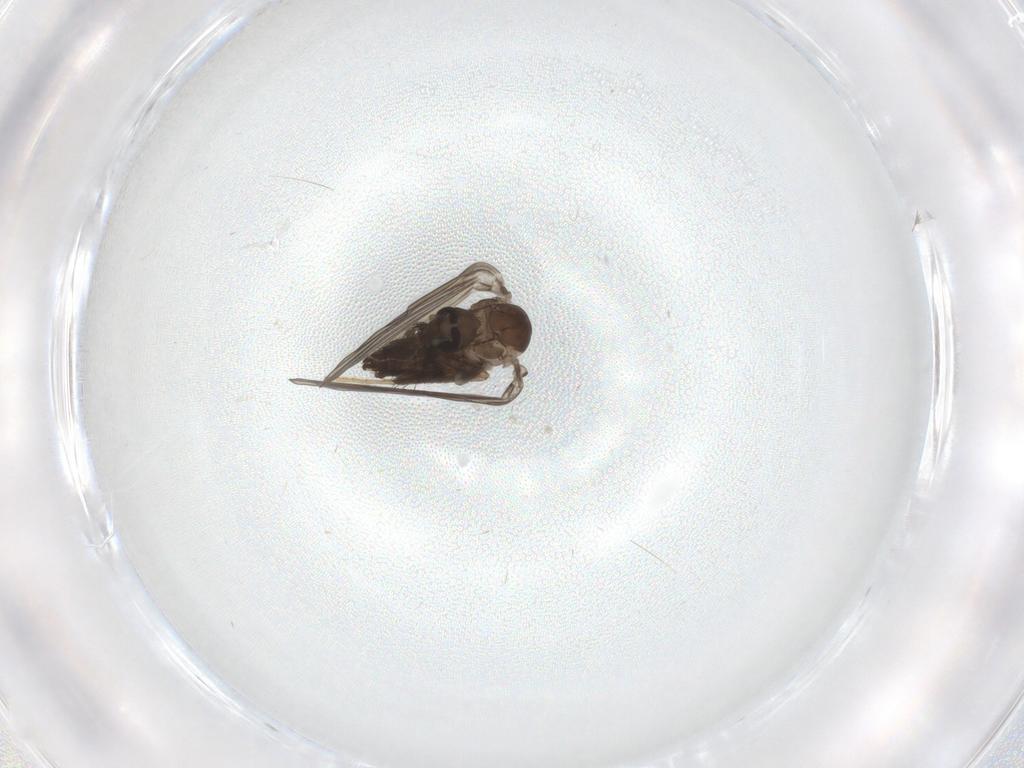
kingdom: Animalia
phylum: Arthropoda
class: Insecta
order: Diptera
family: Psychodidae
